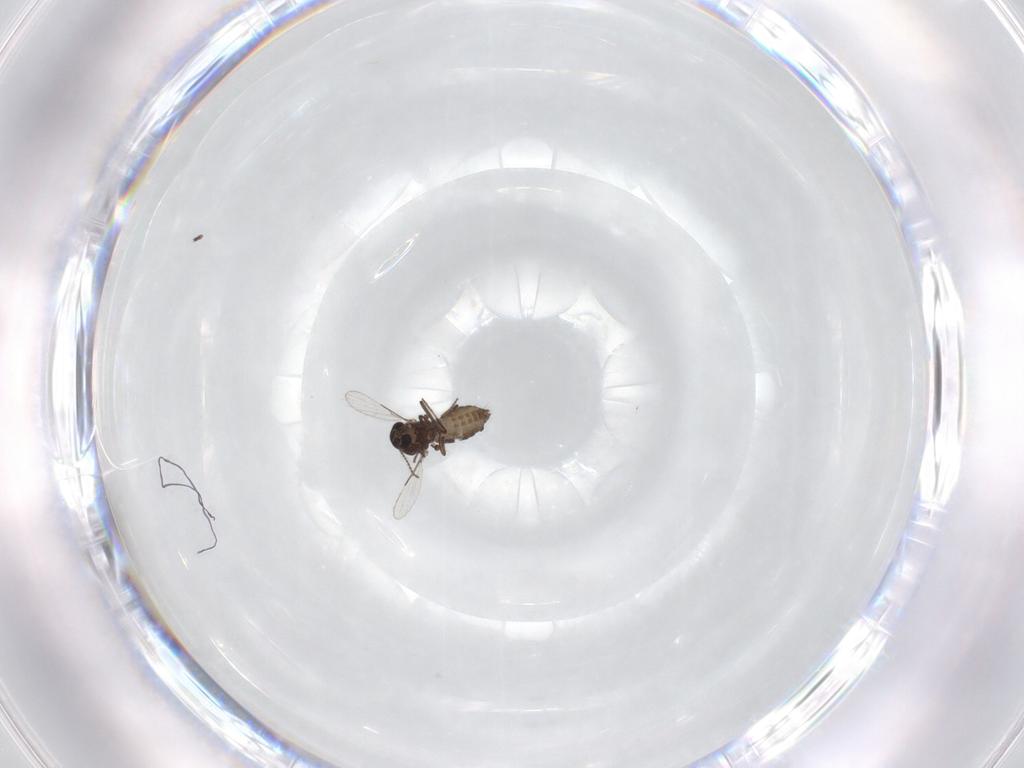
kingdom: Animalia
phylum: Arthropoda
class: Insecta
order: Diptera
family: Ceratopogonidae
